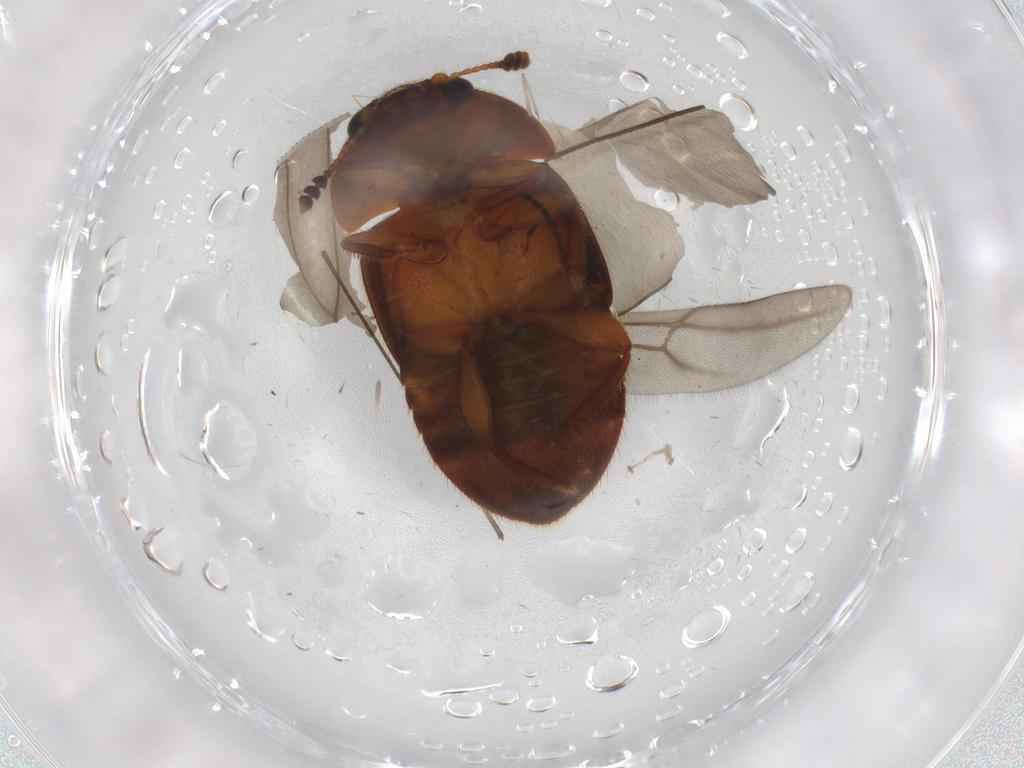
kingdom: Animalia
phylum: Arthropoda
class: Insecta
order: Coleoptera
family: Nitidulidae
